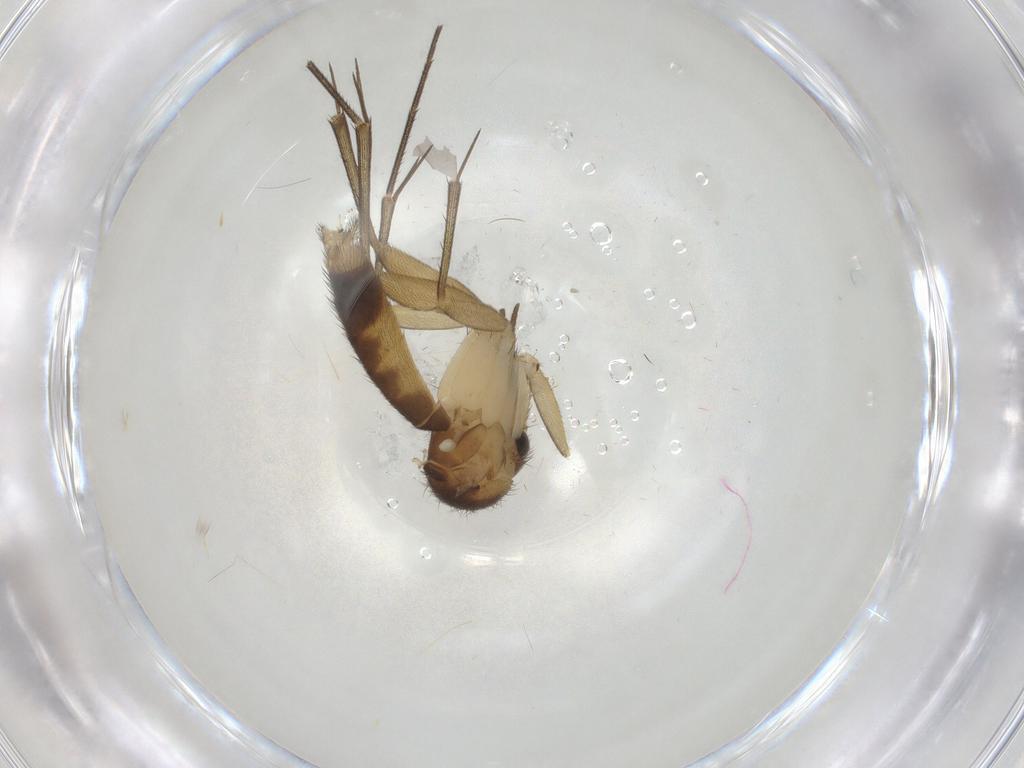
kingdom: Animalia
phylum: Arthropoda
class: Insecta
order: Diptera
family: Mycetophilidae
